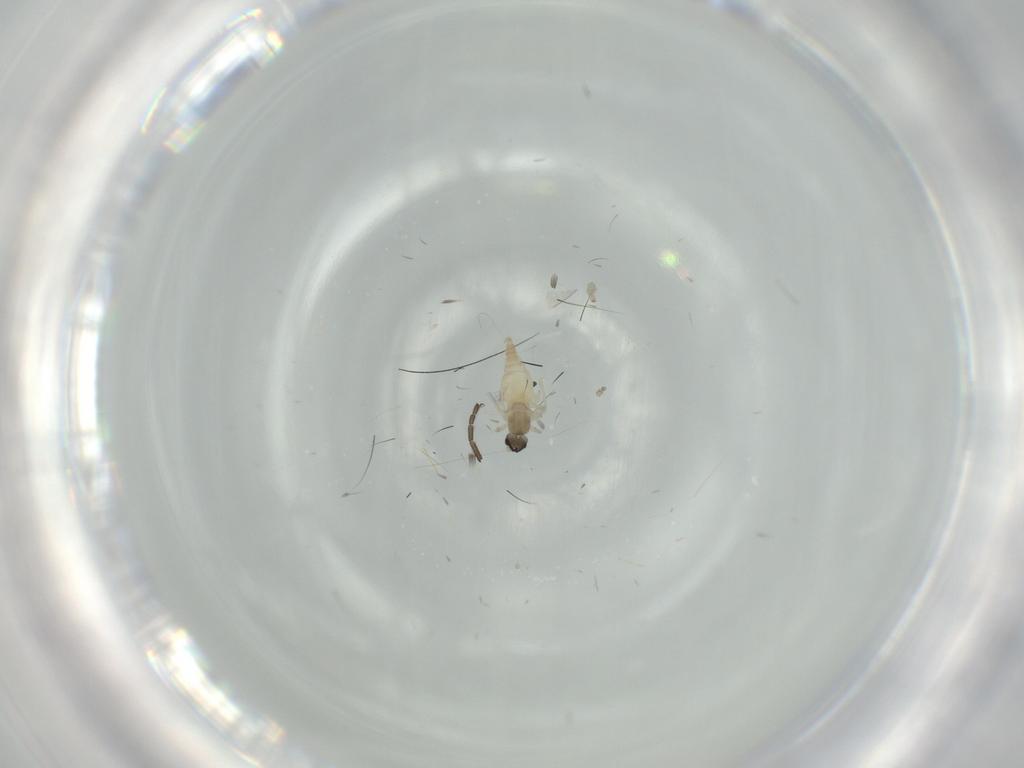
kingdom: Animalia
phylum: Arthropoda
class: Insecta
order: Diptera
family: Cecidomyiidae
